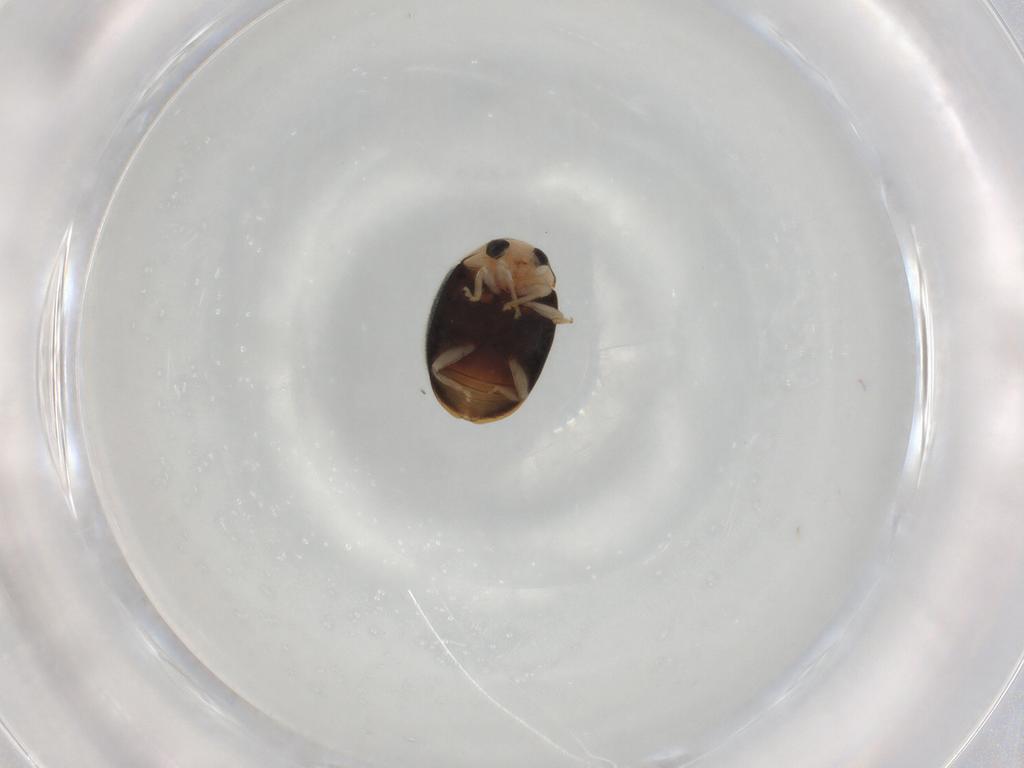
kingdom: Animalia
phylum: Arthropoda
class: Insecta
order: Coleoptera
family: Coccinellidae
